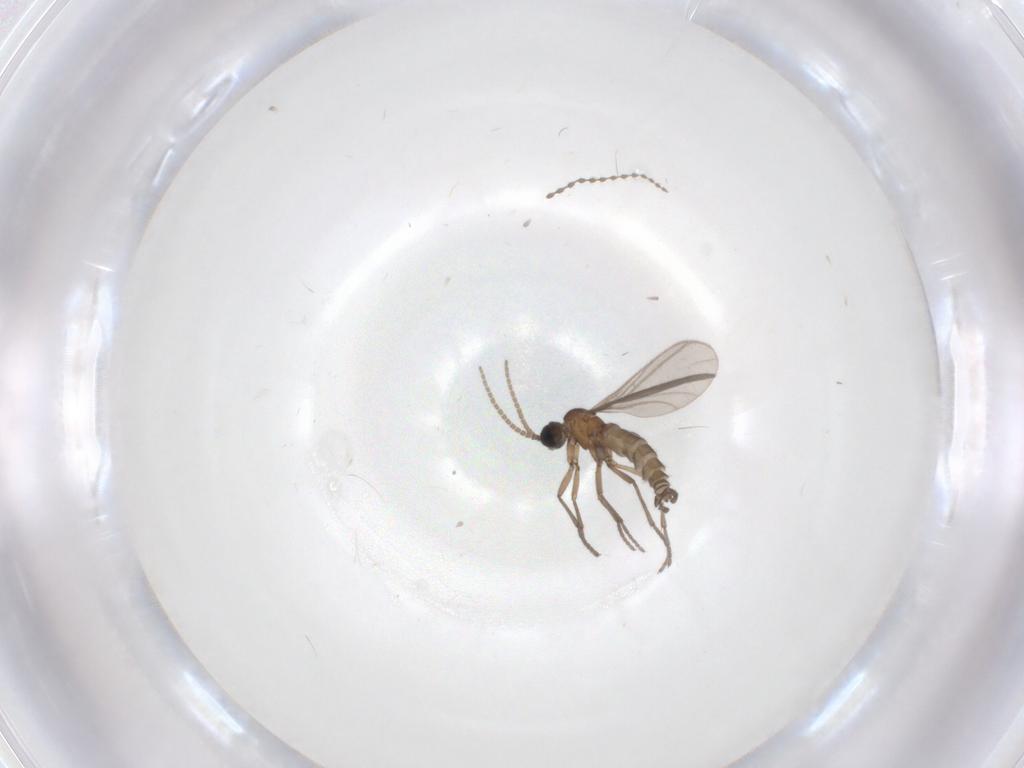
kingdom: Animalia
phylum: Arthropoda
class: Insecta
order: Diptera
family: Sciaridae
